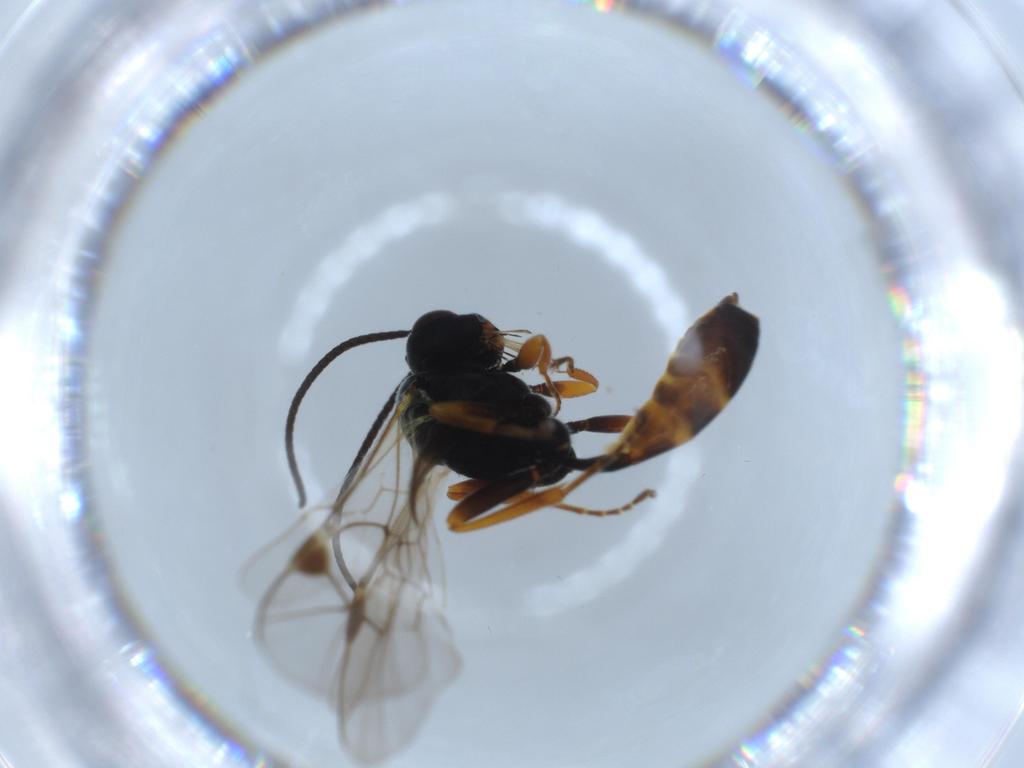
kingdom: Animalia
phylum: Arthropoda
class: Insecta
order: Hymenoptera
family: Ichneumonidae
